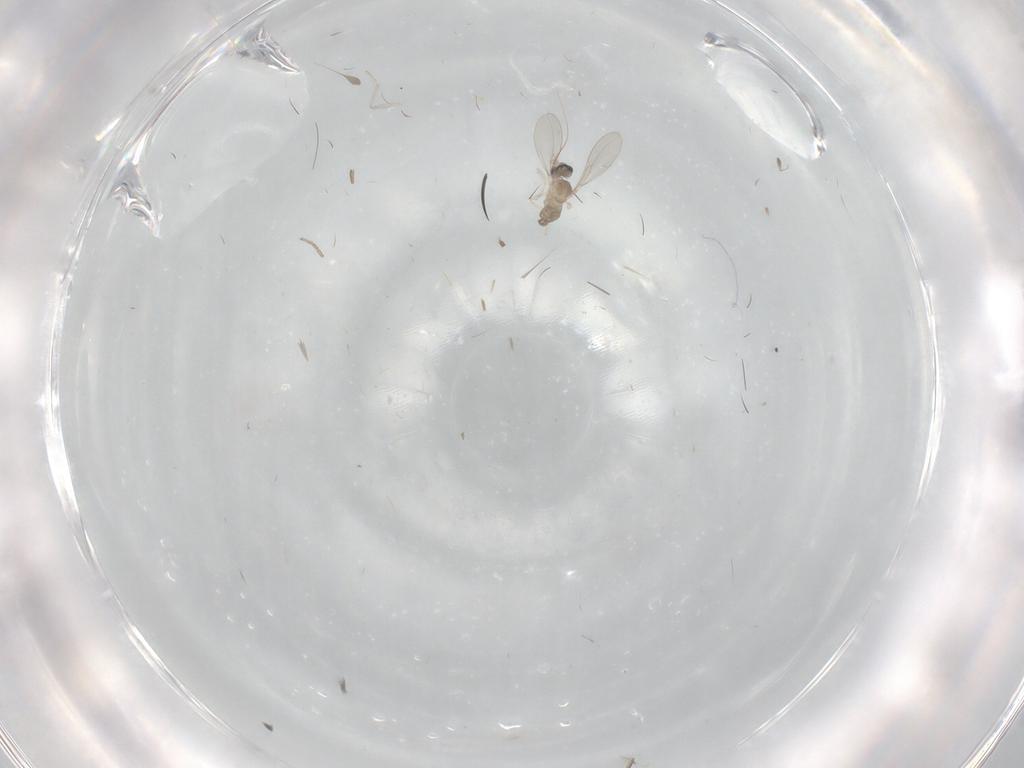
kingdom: Animalia
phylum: Arthropoda
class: Insecta
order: Diptera
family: Cecidomyiidae
